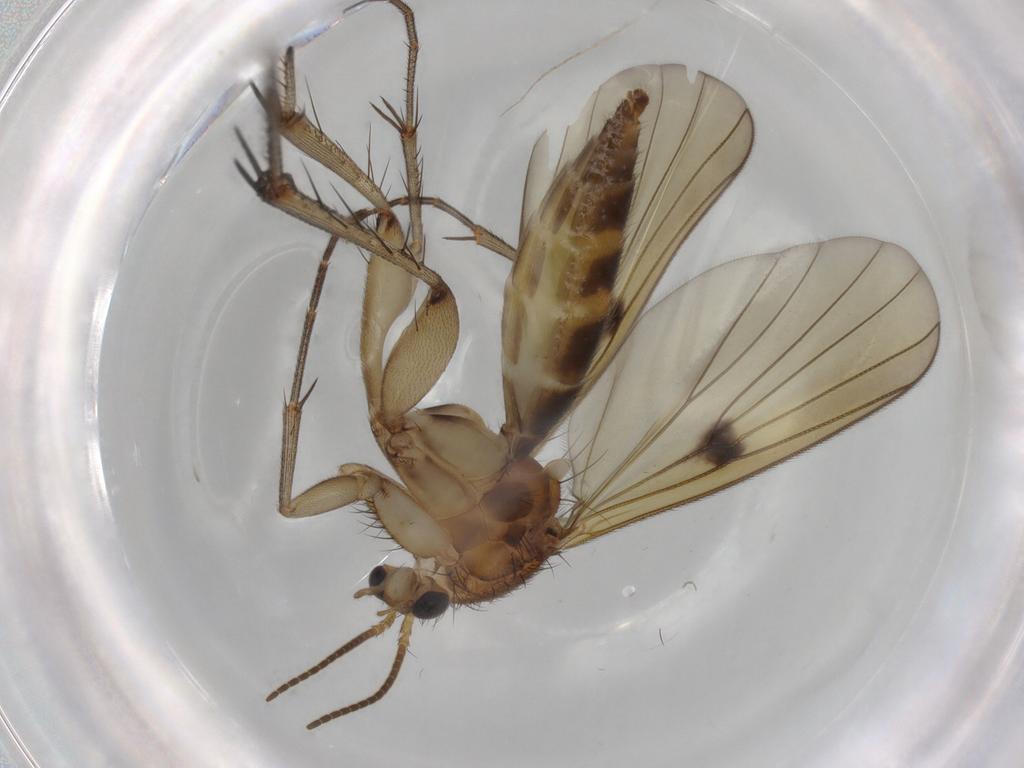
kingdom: Animalia
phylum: Arthropoda
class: Insecta
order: Diptera
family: Mycetophilidae
